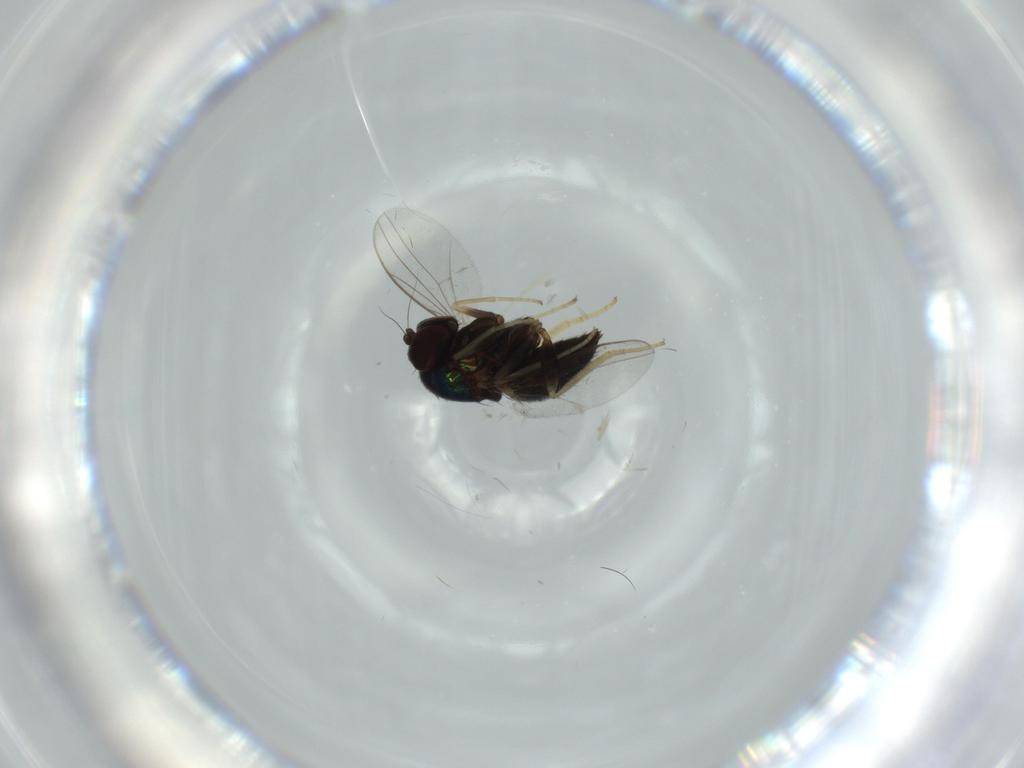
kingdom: Animalia
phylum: Arthropoda
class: Insecta
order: Diptera
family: Dolichopodidae
